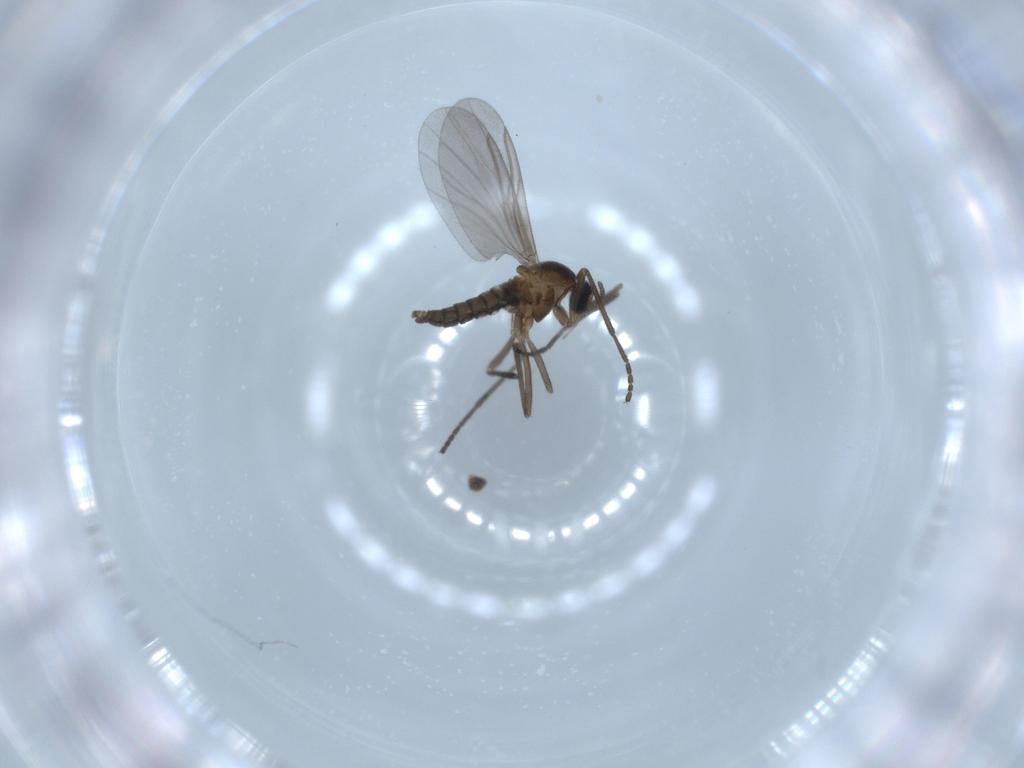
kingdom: Animalia
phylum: Arthropoda
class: Insecta
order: Diptera
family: Cecidomyiidae
